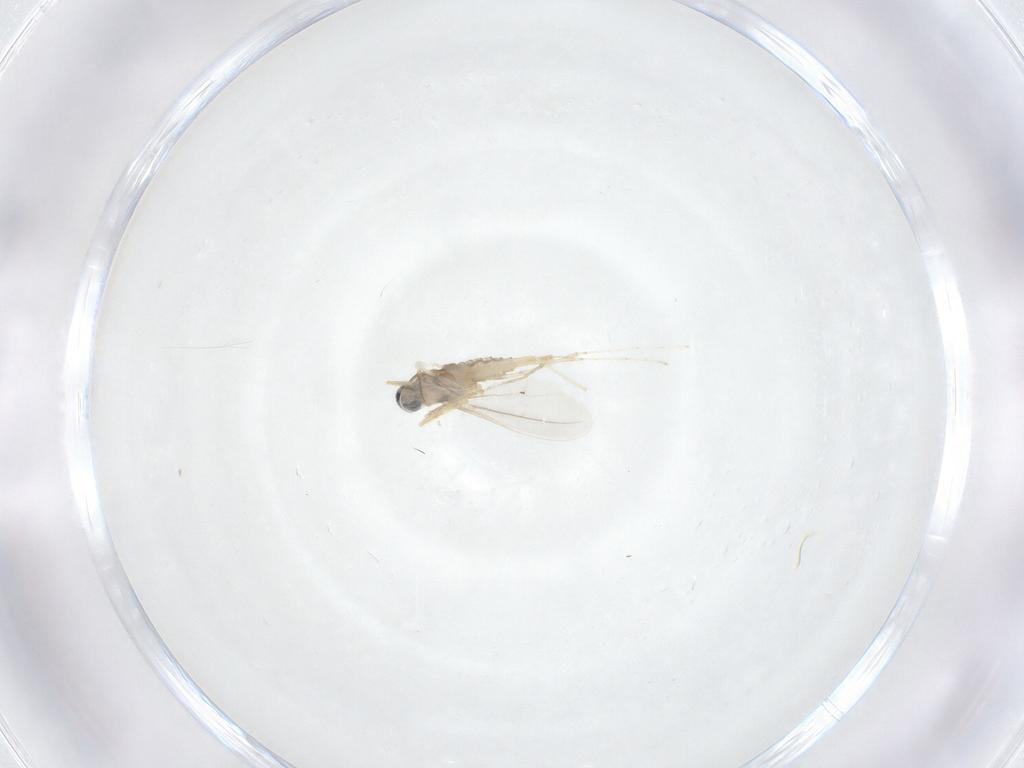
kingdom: Animalia
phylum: Arthropoda
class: Insecta
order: Diptera
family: Cecidomyiidae
